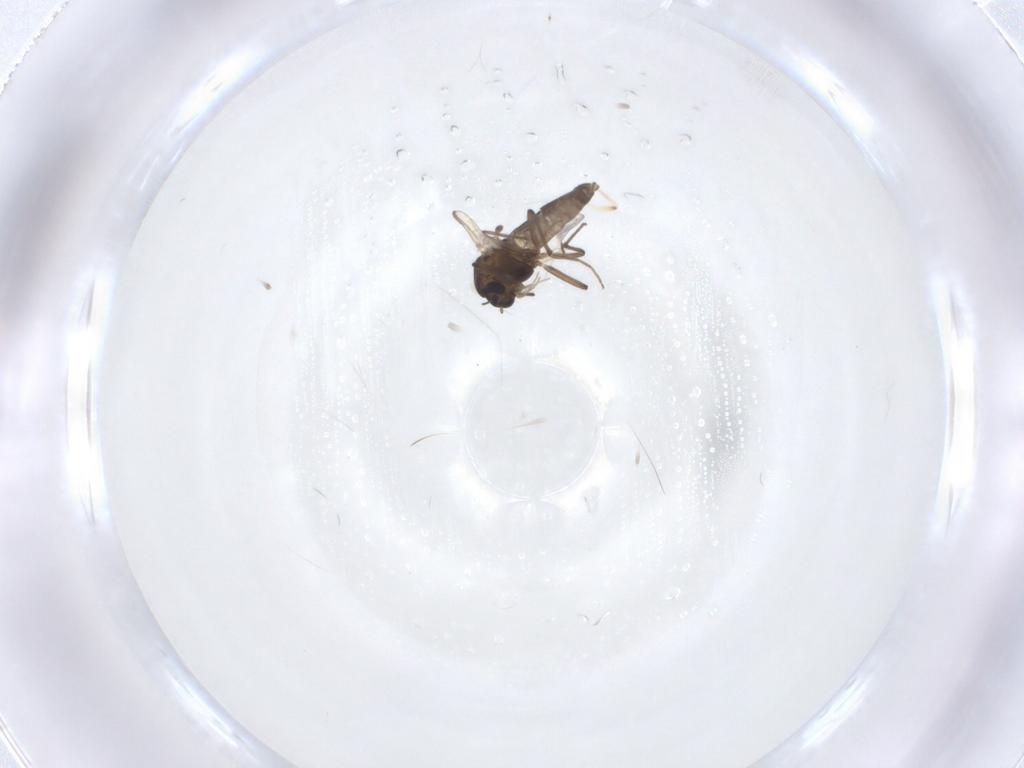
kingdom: Animalia
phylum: Arthropoda
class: Insecta
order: Diptera
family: Chironomidae
